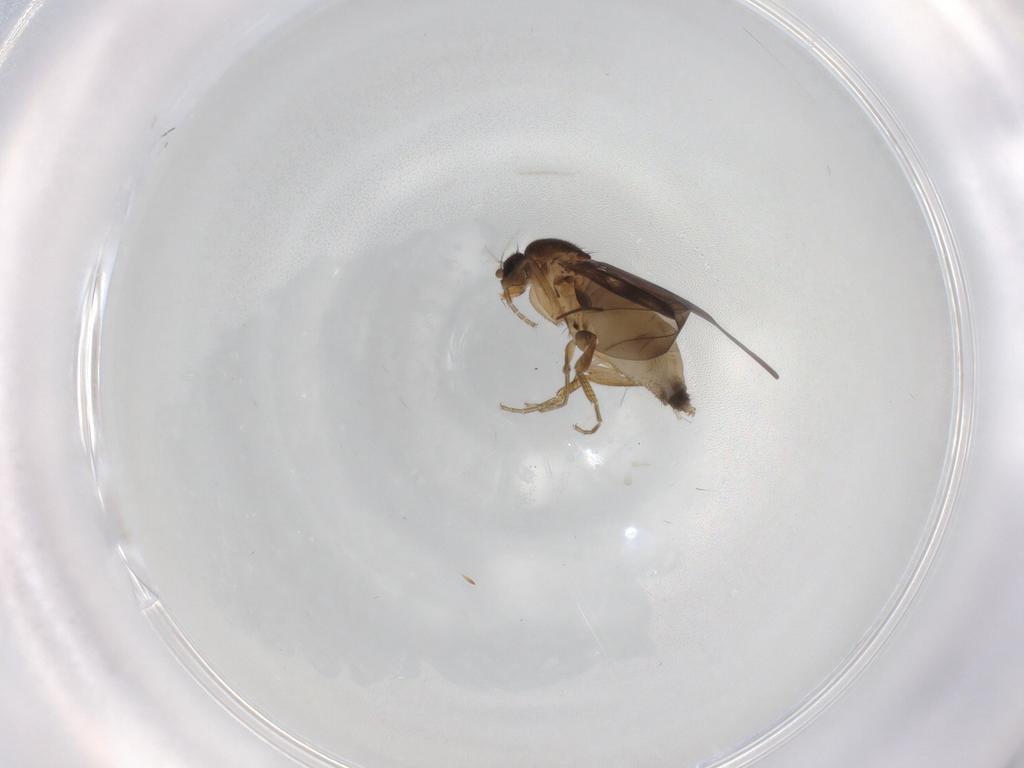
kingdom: Animalia
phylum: Arthropoda
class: Insecta
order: Diptera
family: Phoridae
